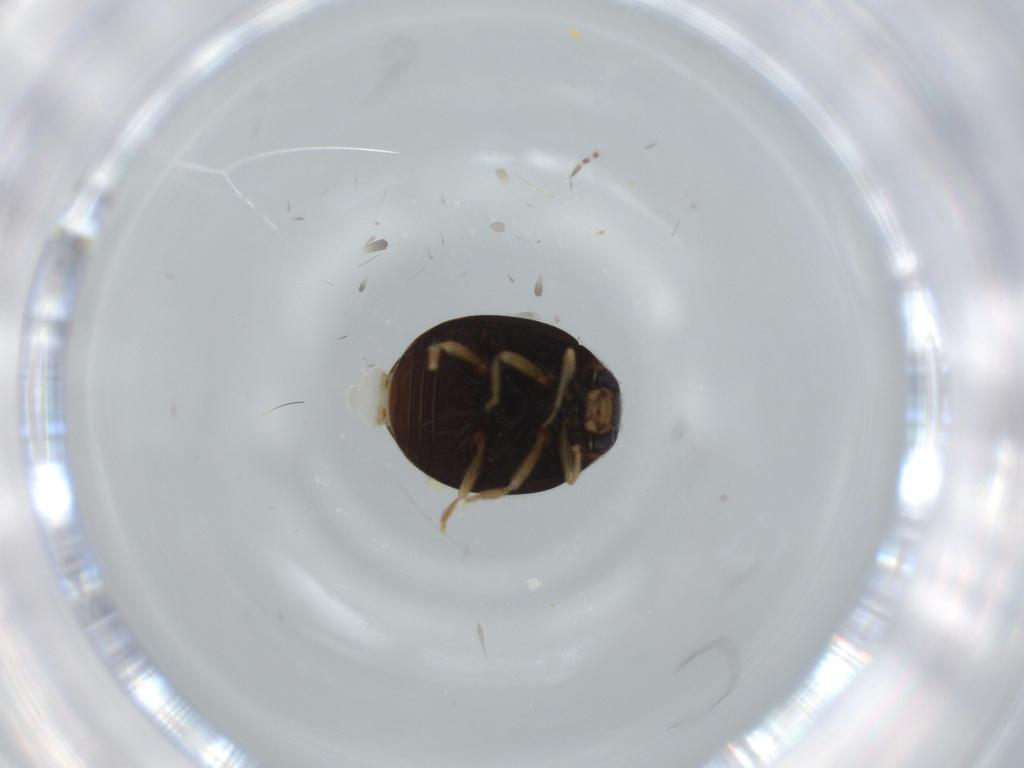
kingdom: Animalia
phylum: Arthropoda
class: Insecta
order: Coleoptera
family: Coccinellidae
